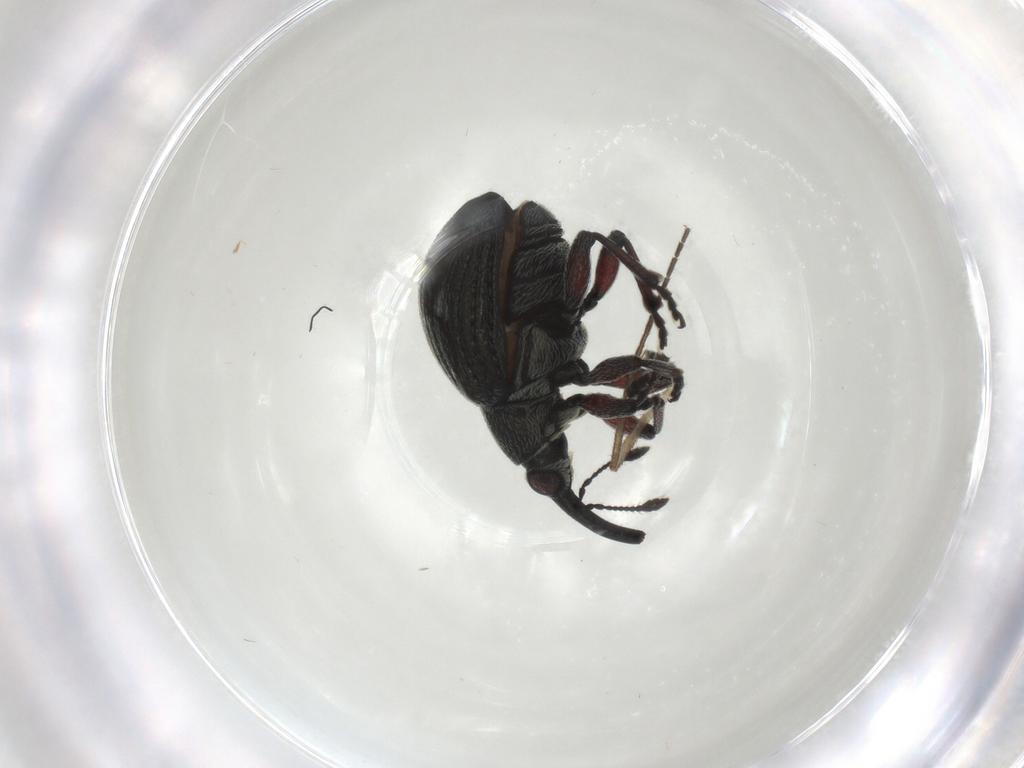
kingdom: Animalia
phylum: Arthropoda
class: Insecta
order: Coleoptera
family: Brentidae
